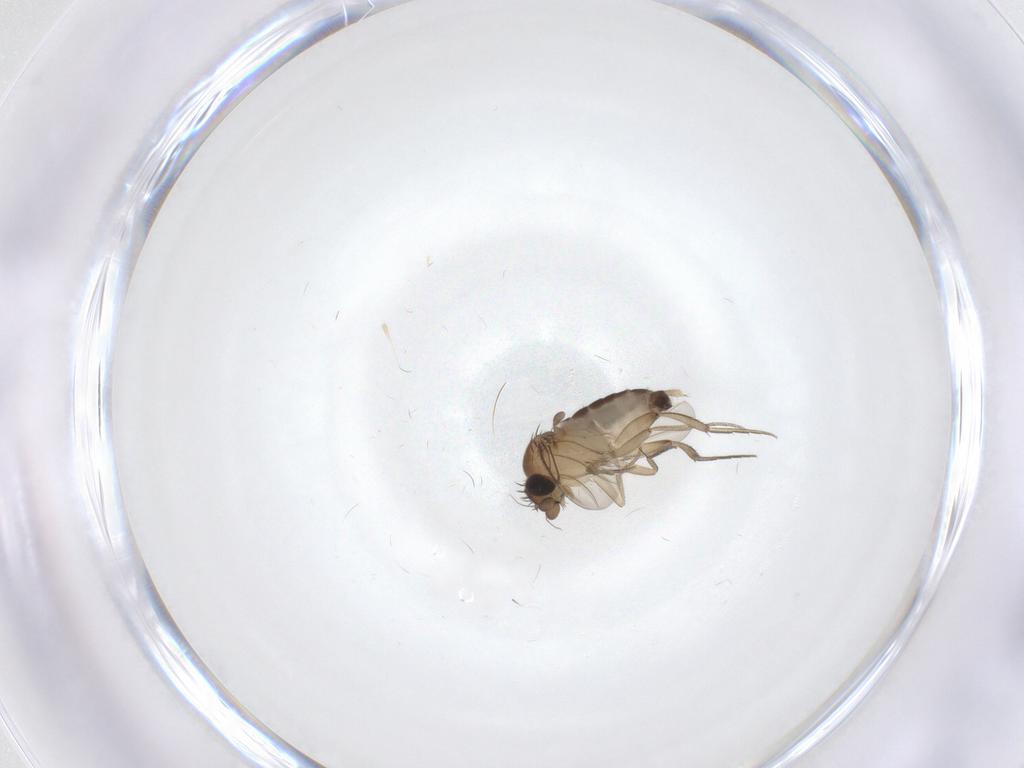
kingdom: Animalia
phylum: Arthropoda
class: Insecta
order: Diptera
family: Phoridae
